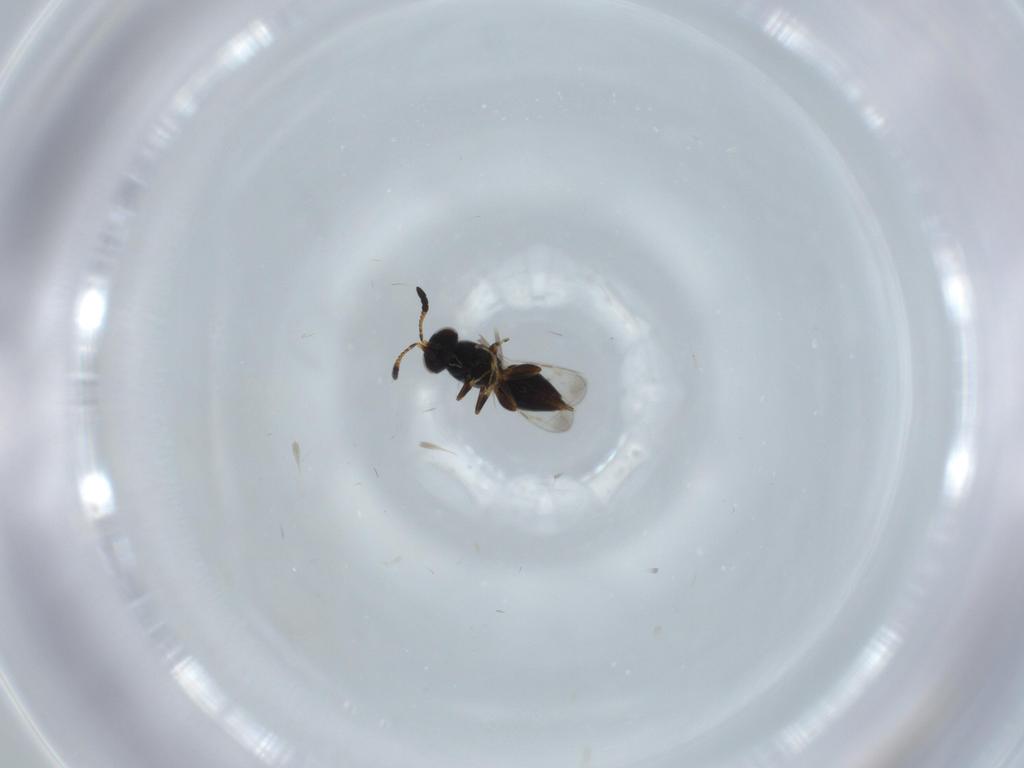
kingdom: Animalia
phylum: Arthropoda
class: Insecta
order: Hymenoptera
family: Trichogrammatidae
